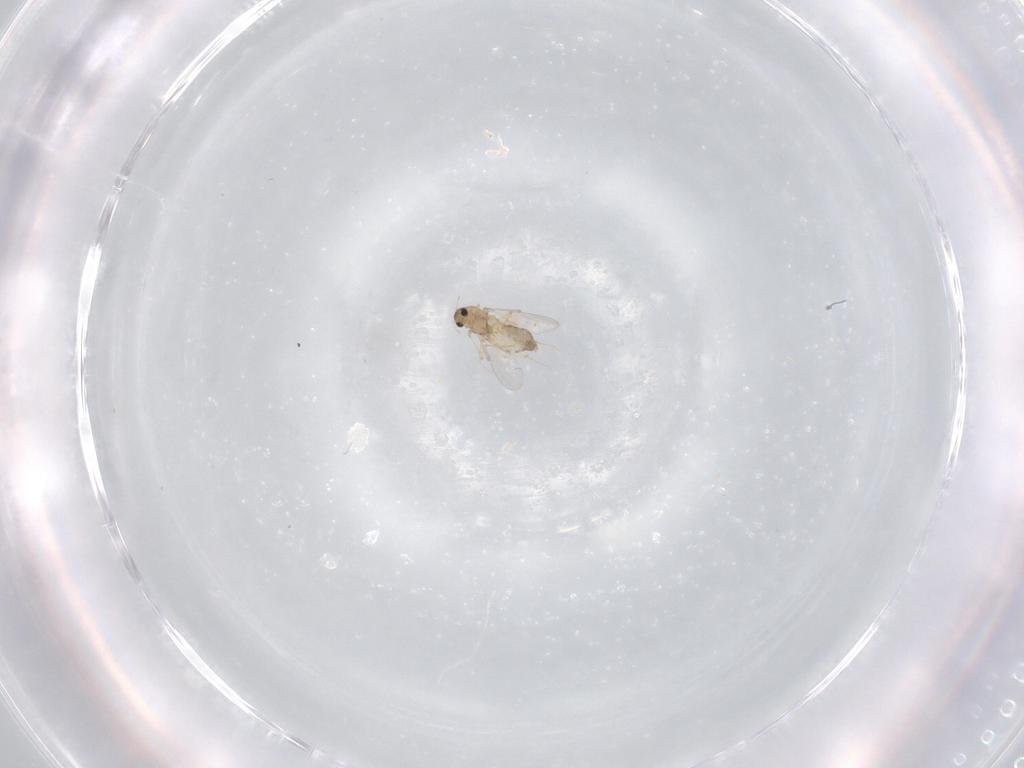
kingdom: Animalia
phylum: Arthropoda
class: Insecta
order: Diptera
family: Chironomidae
